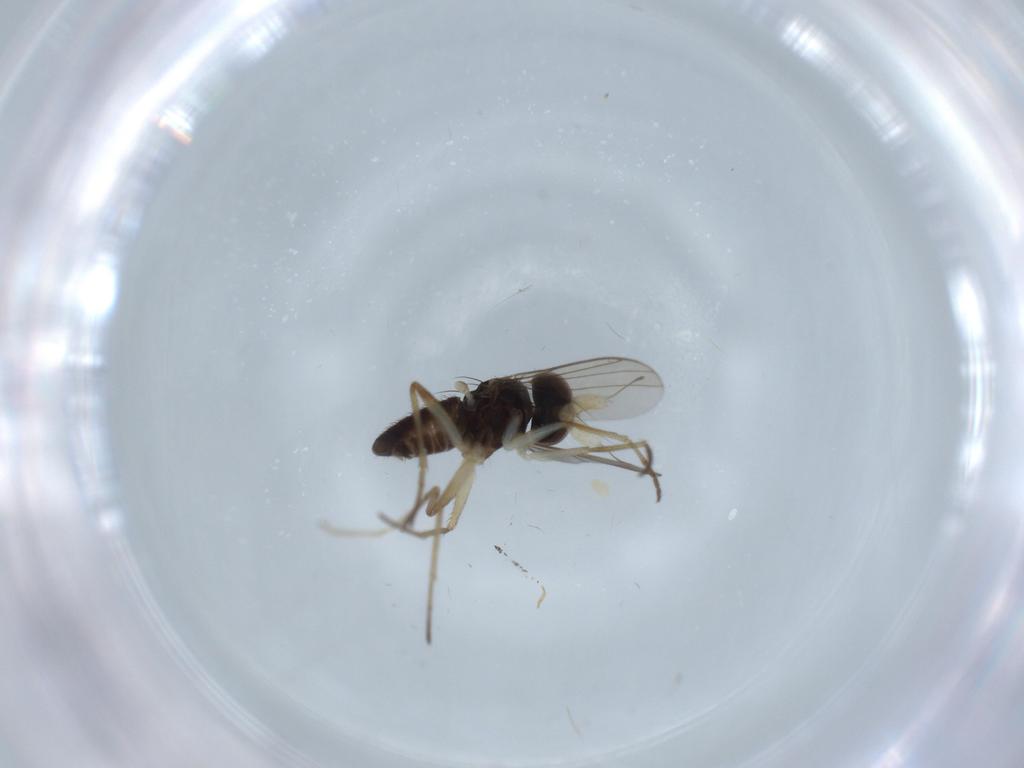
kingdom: Animalia
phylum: Arthropoda
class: Insecta
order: Diptera
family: Dolichopodidae
